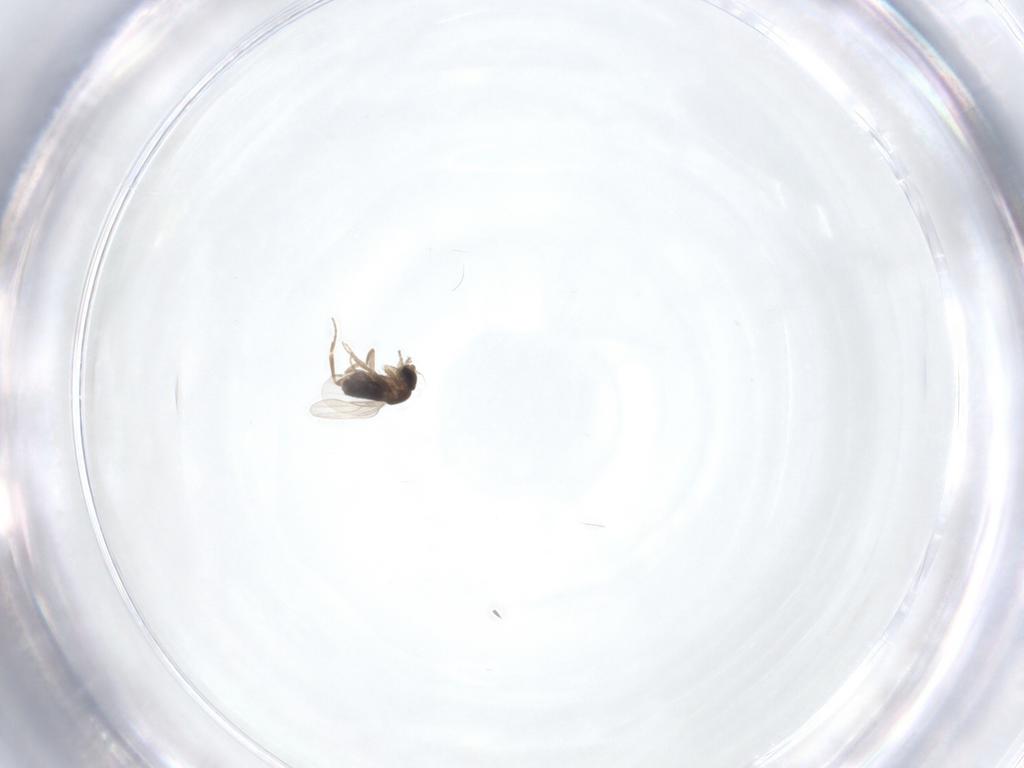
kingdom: Animalia
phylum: Arthropoda
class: Insecta
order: Diptera
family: Phoridae
